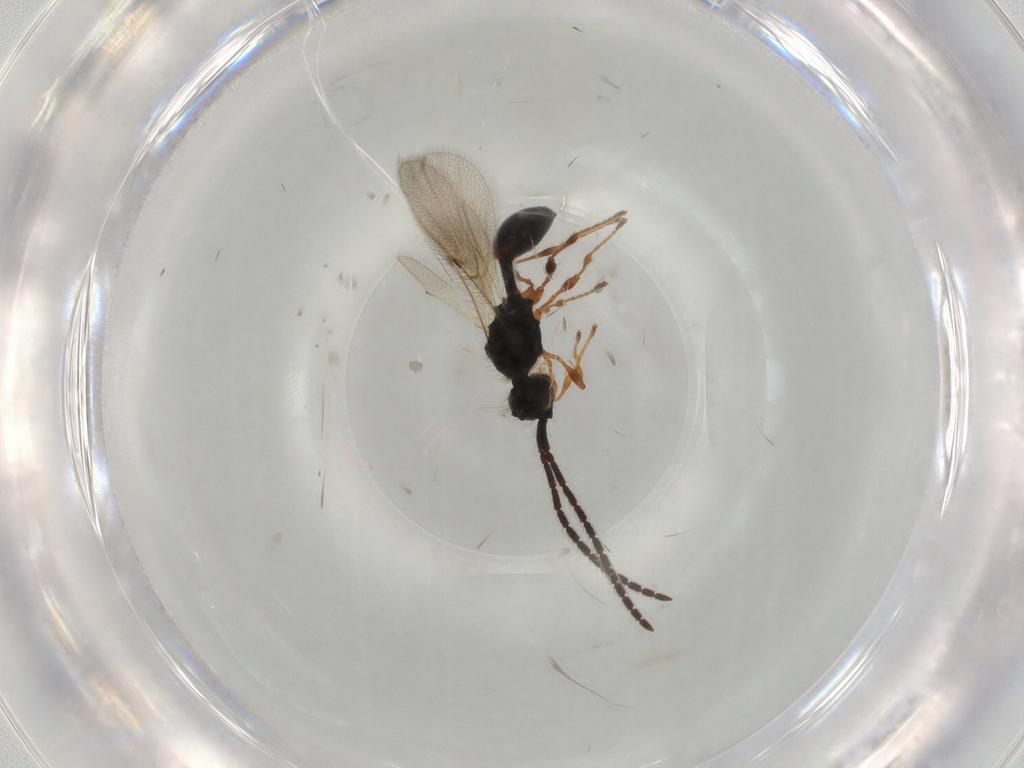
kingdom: Animalia
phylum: Arthropoda
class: Insecta
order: Hymenoptera
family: Diapriidae
